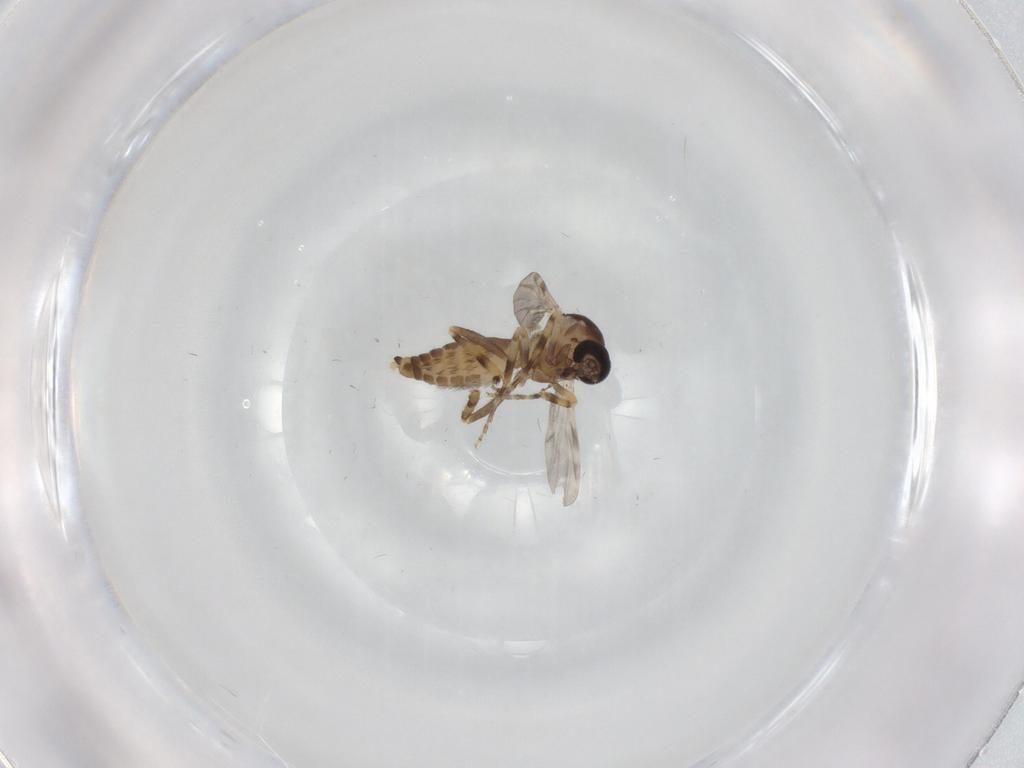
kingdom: Animalia
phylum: Arthropoda
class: Insecta
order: Diptera
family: Ceratopogonidae
